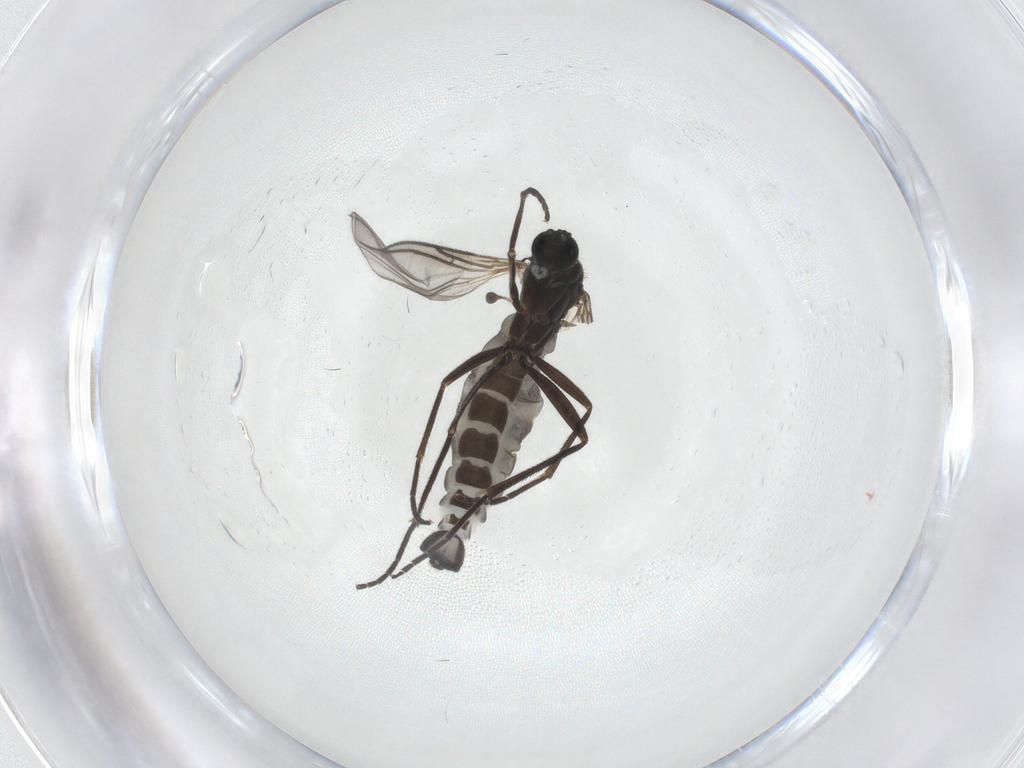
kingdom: Animalia
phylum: Arthropoda
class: Insecta
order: Diptera
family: Sciaridae
